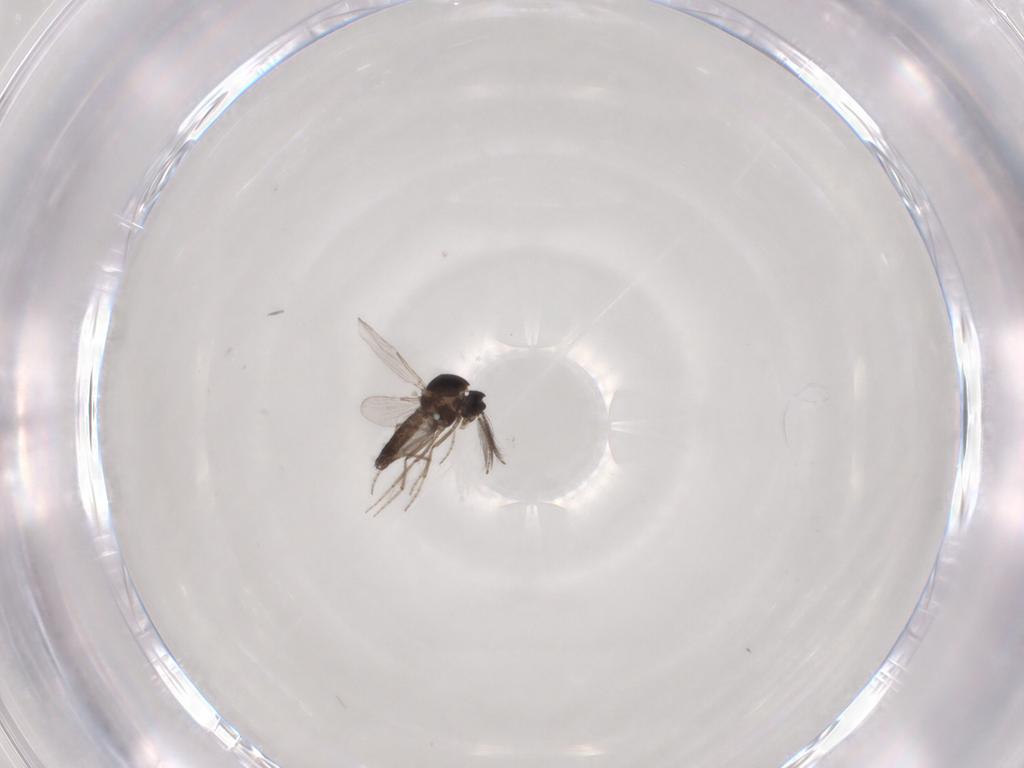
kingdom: Animalia
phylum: Arthropoda
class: Insecta
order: Diptera
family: Ceratopogonidae
